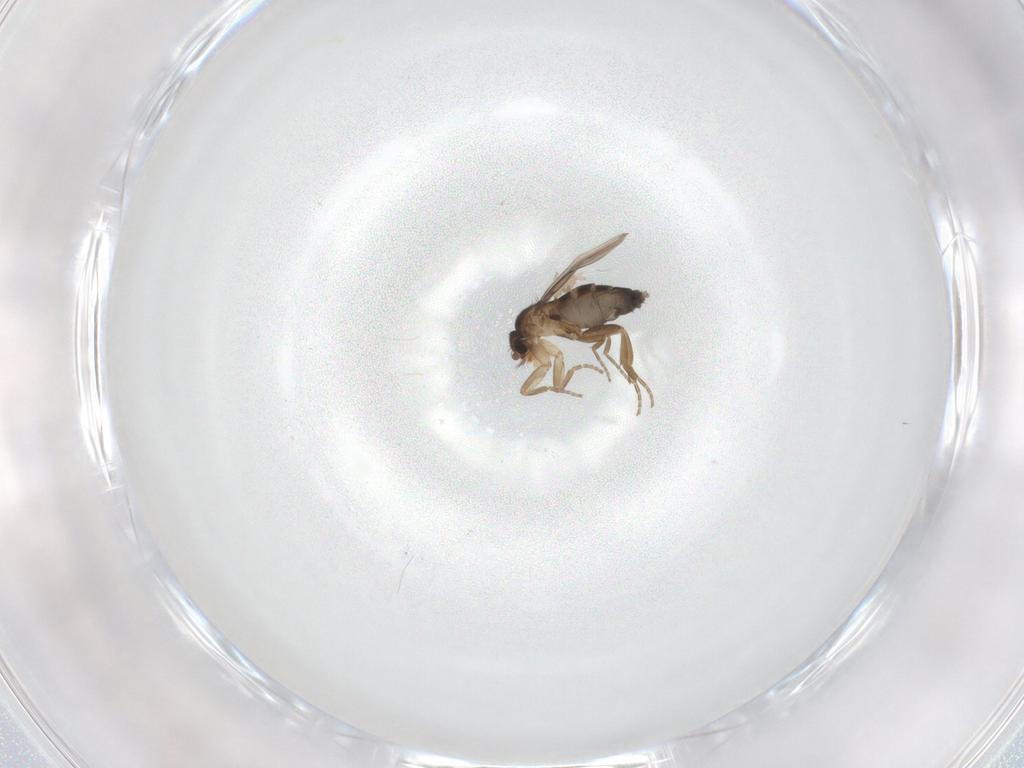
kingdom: Animalia
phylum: Arthropoda
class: Insecta
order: Diptera
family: Cecidomyiidae
